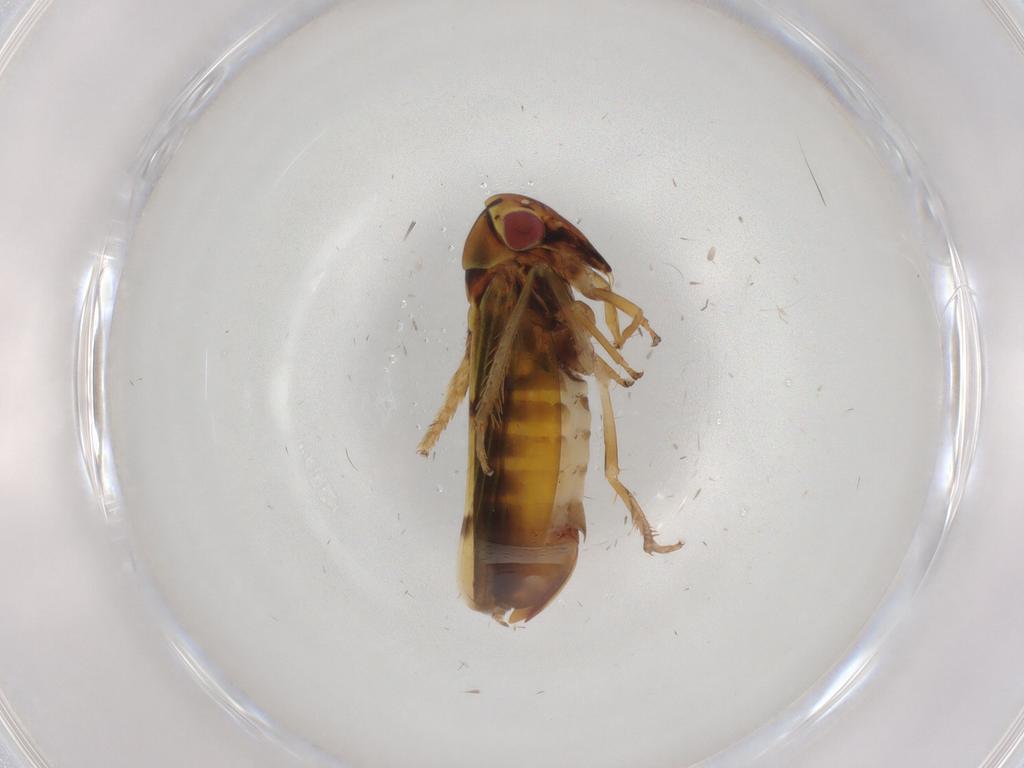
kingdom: Animalia
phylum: Arthropoda
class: Insecta
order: Hemiptera
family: Cicadellidae
